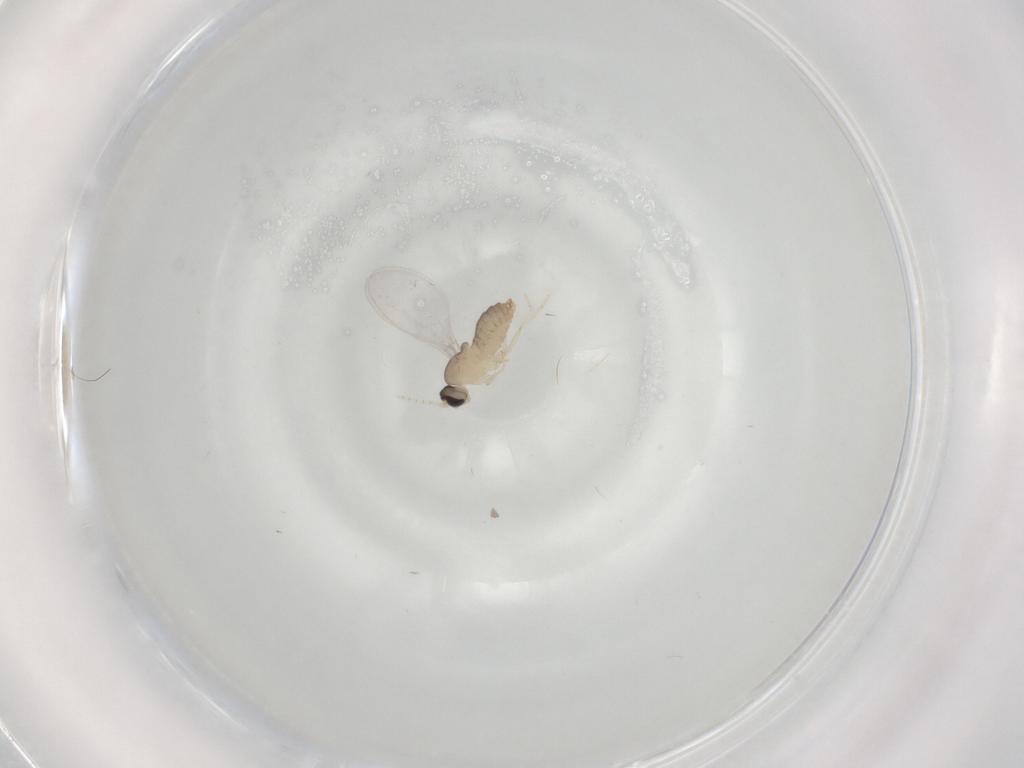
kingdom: Animalia
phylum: Arthropoda
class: Insecta
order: Diptera
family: Cecidomyiidae
